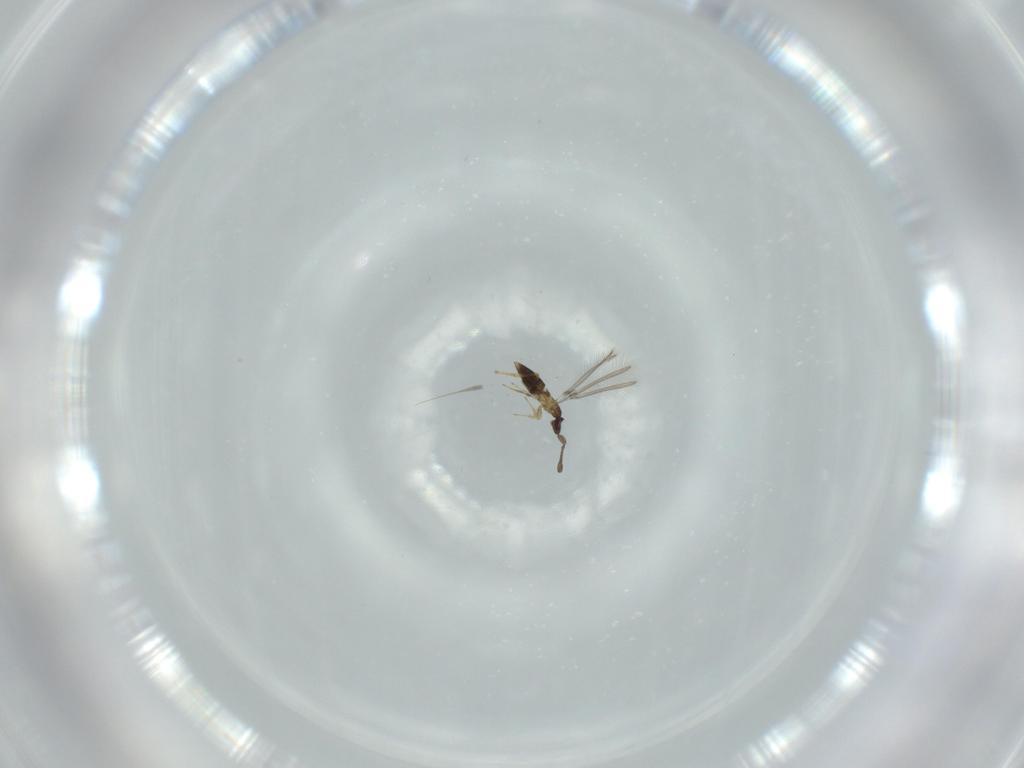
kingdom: Animalia
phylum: Arthropoda
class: Insecta
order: Hymenoptera
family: Mymaridae
